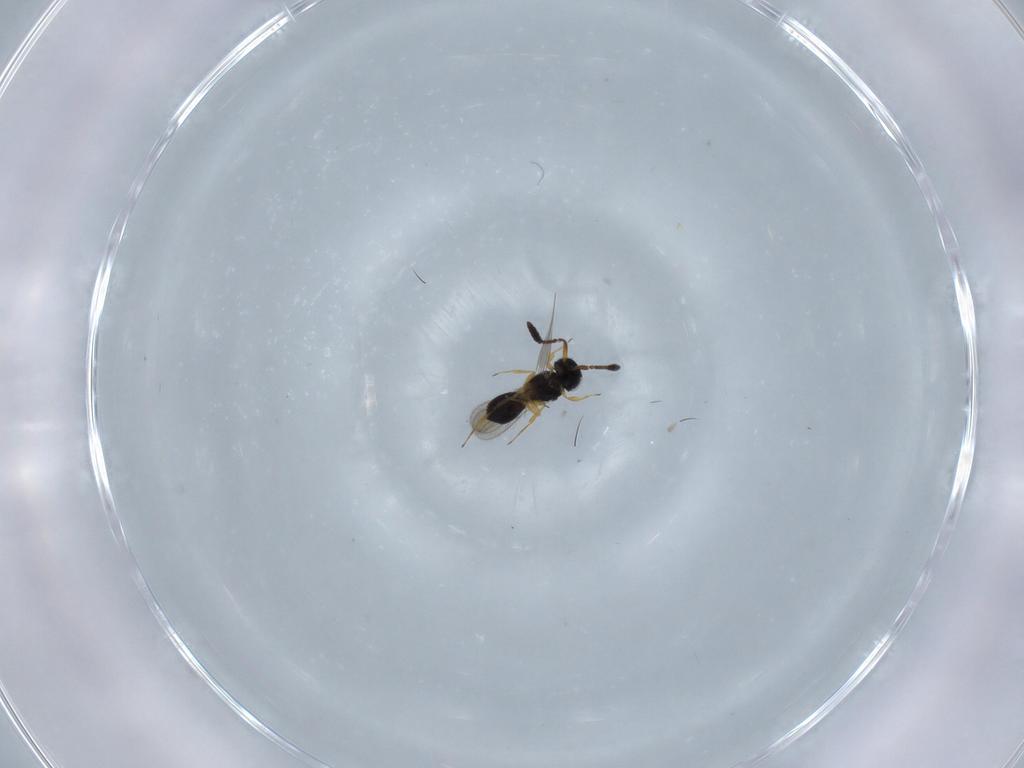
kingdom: Animalia
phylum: Arthropoda
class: Insecta
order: Hymenoptera
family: Scelionidae
